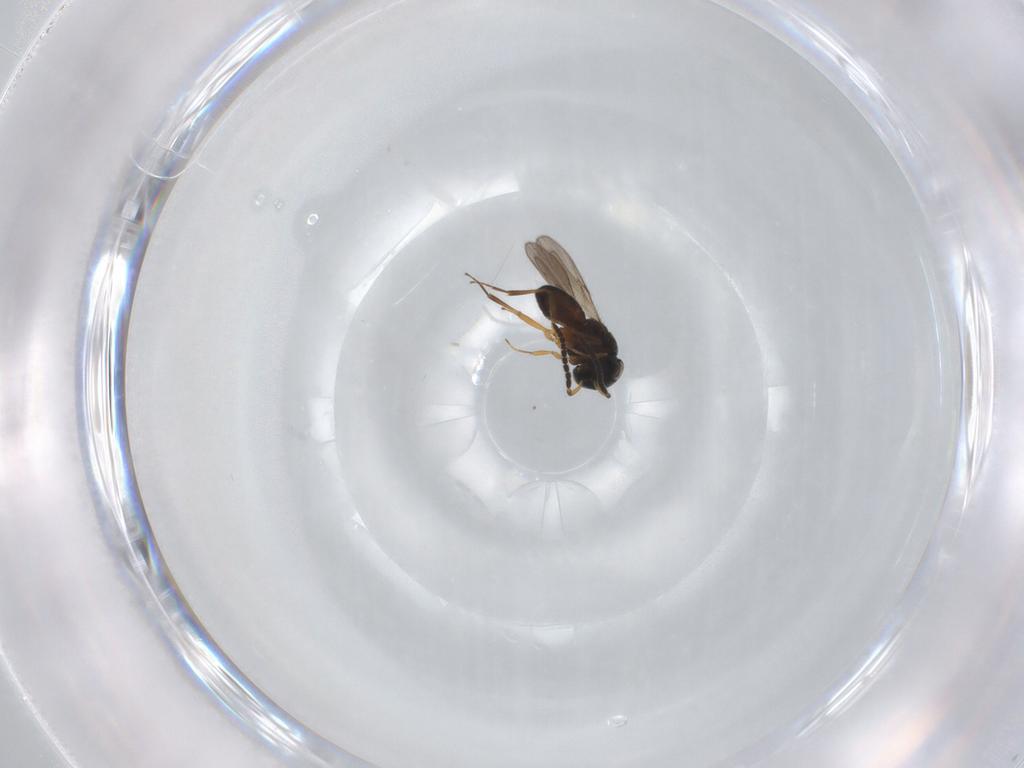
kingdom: Animalia
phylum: Arthropoda
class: Insecta
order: Hymenoptera
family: Scelionidae
